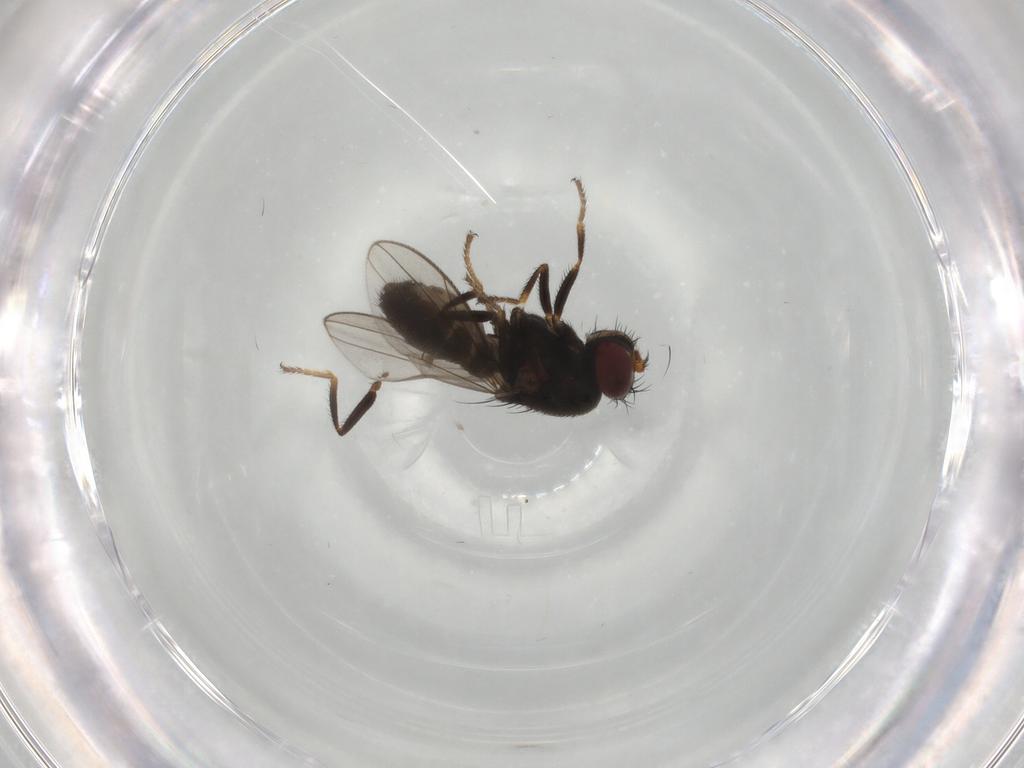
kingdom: Animalia
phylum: Arthropoda
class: Insecta
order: Diptera
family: Ephydridae
